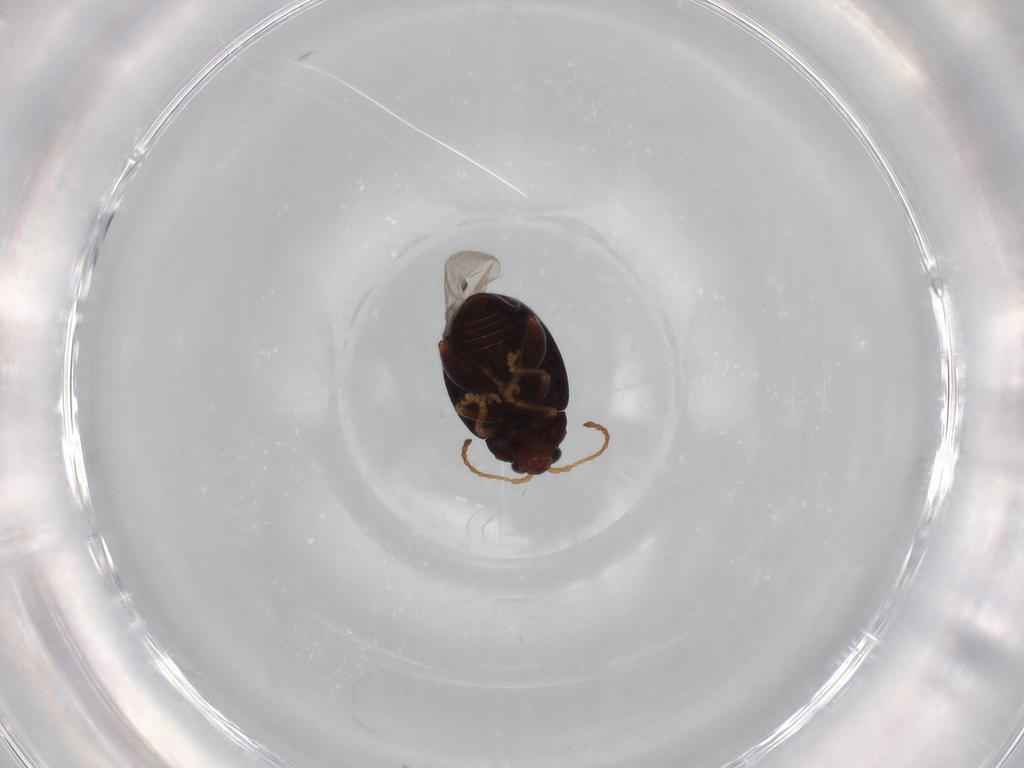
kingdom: Animalia
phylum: Arthropoda
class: Insecta
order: Coleoptera
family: Chrysomelidae
